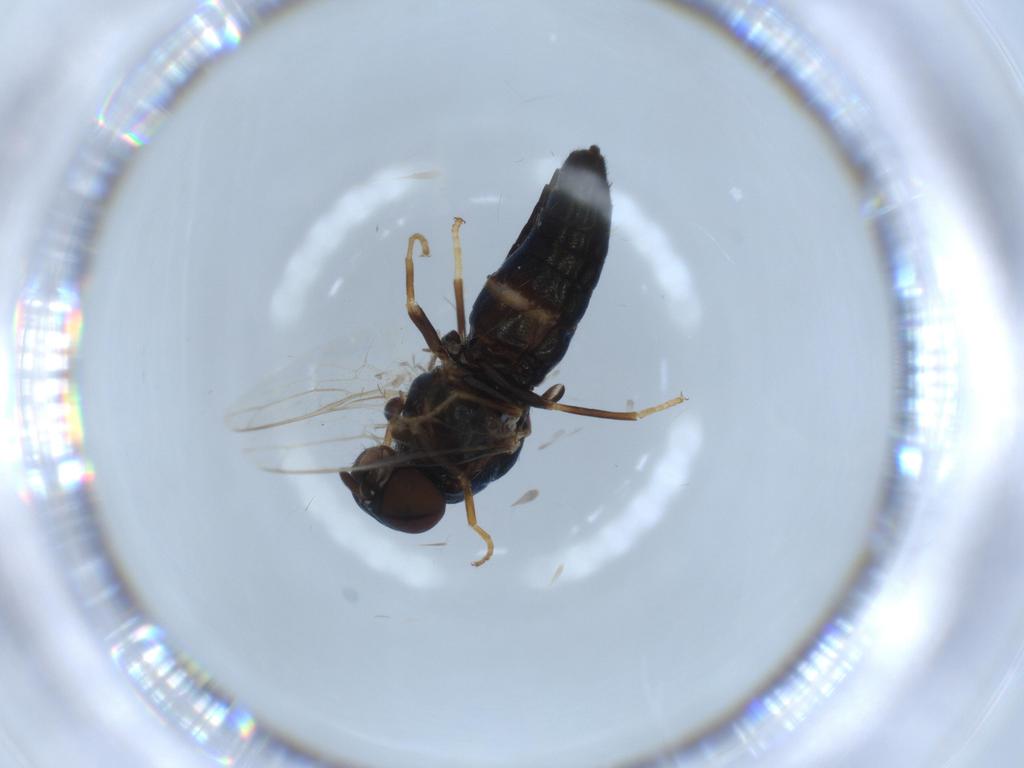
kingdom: Animalia
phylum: Arthropoda
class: Insecta
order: Diptera
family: Scenopinidae
